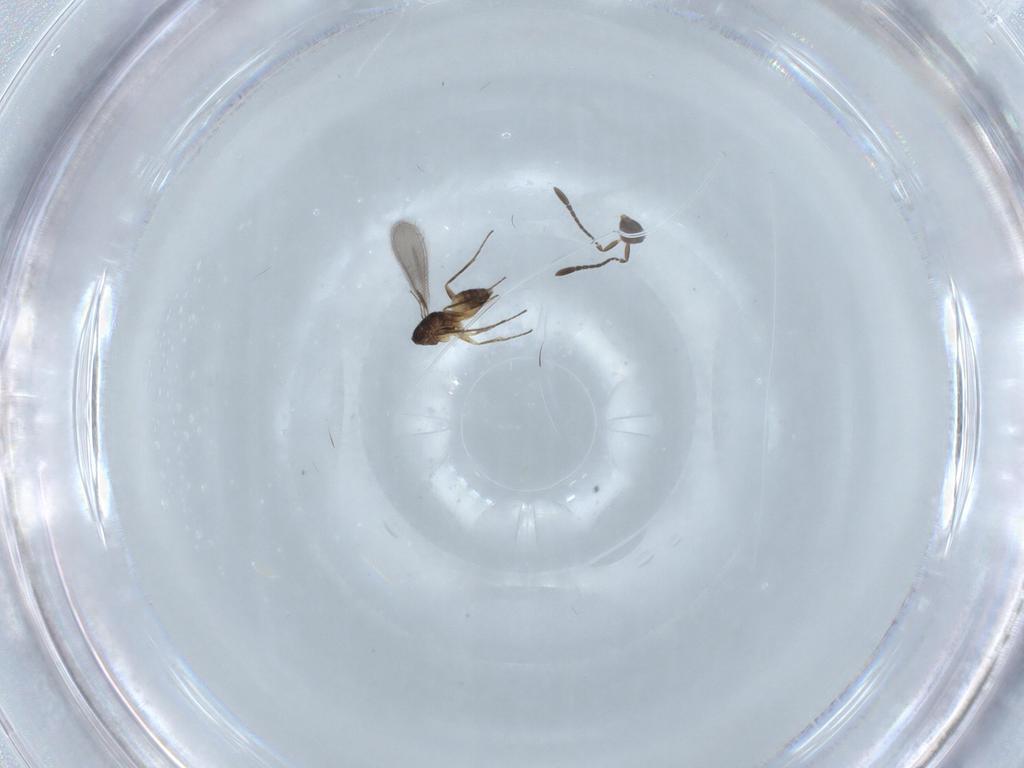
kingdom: Animalia
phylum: Arthropoda
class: Insecta
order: Hymenoptera
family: Mymaridae
